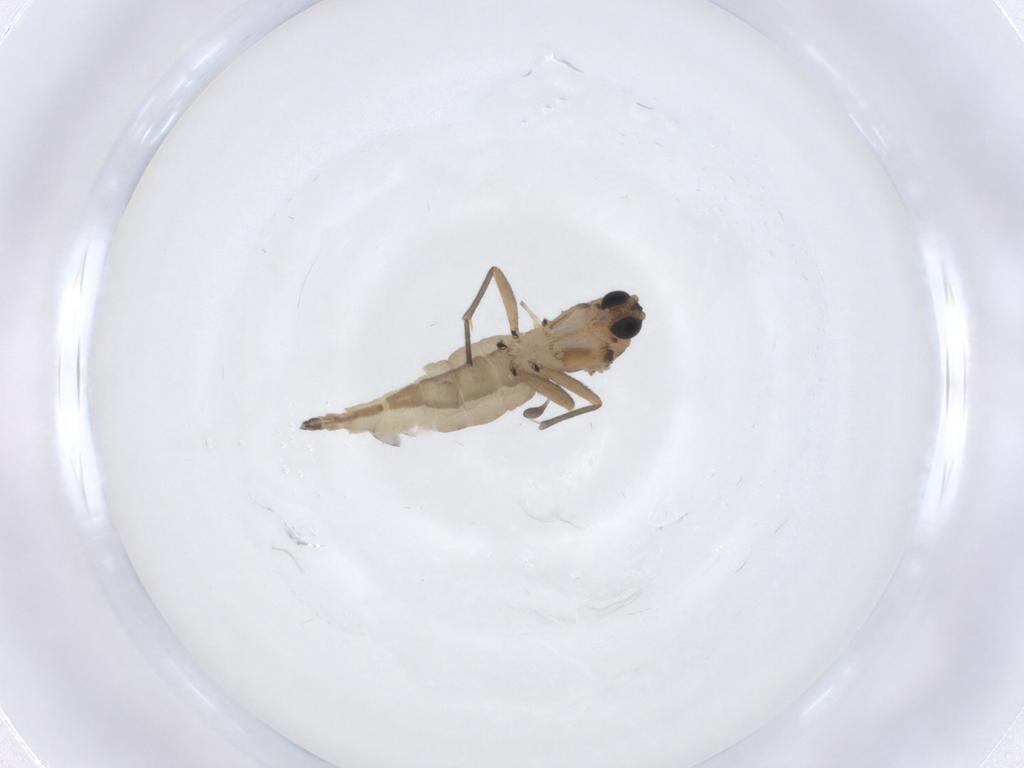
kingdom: Animalia
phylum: Arthropoda
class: Insecta
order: Diptera
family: Sciaridae
